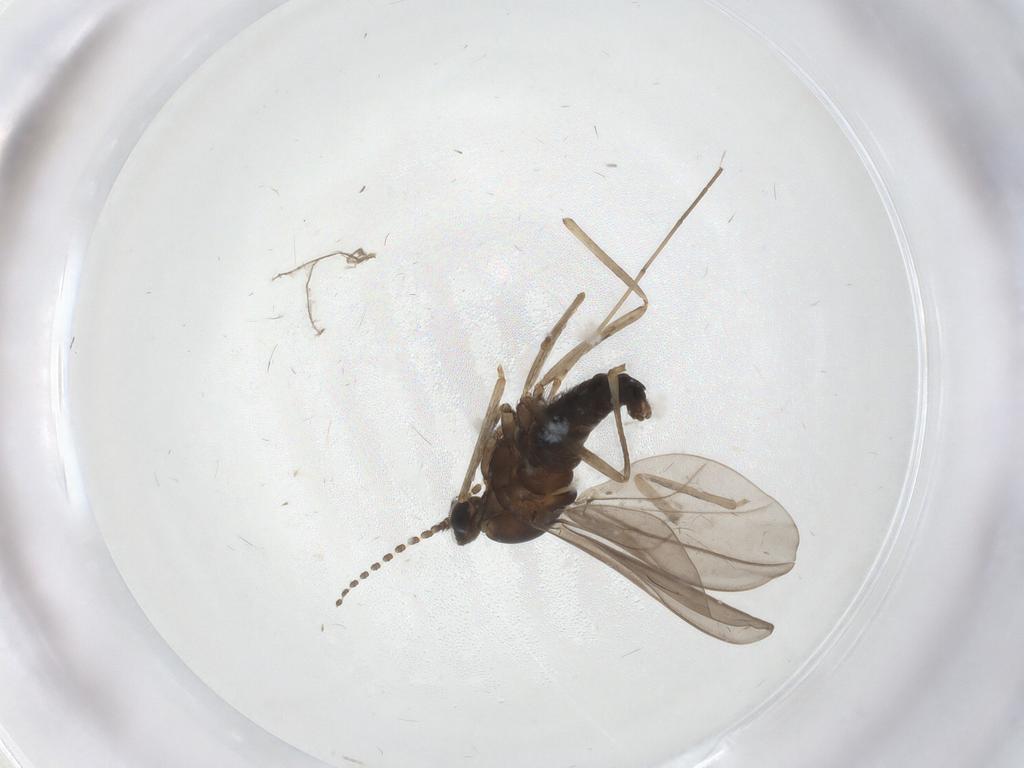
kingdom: Animalia
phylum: Arthropoda
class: Insecta
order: Diptera
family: Cecidomyiidae
